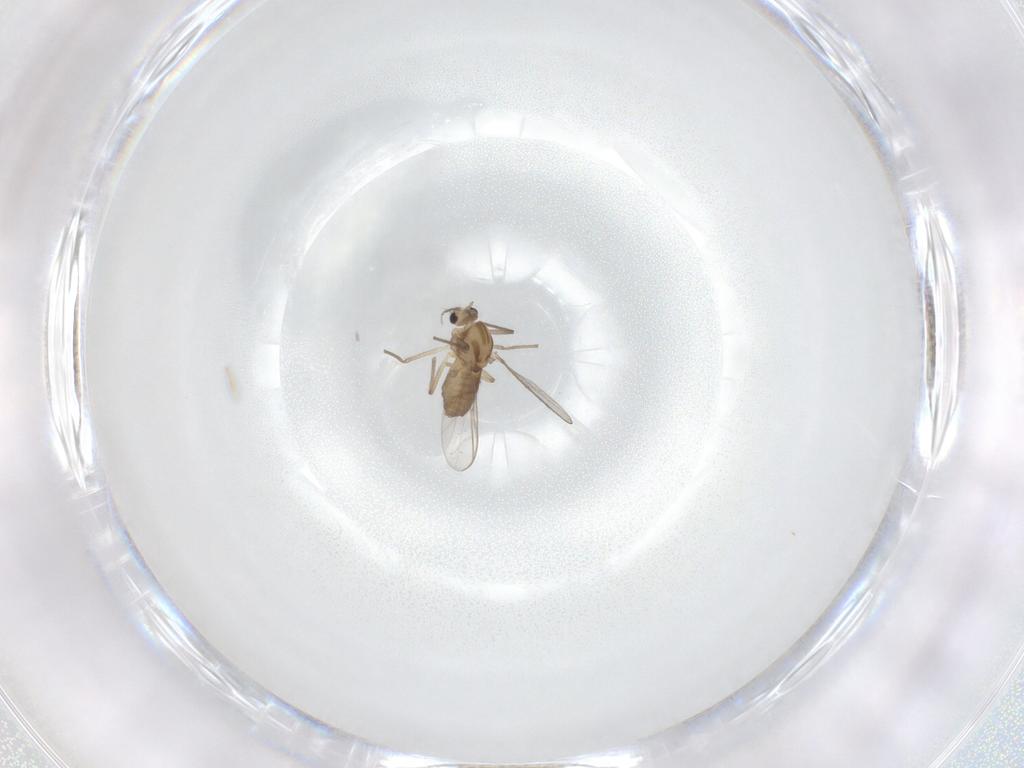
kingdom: Animalia
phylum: Arthropoda
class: Insecta
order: Diptera
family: Chironomidae
